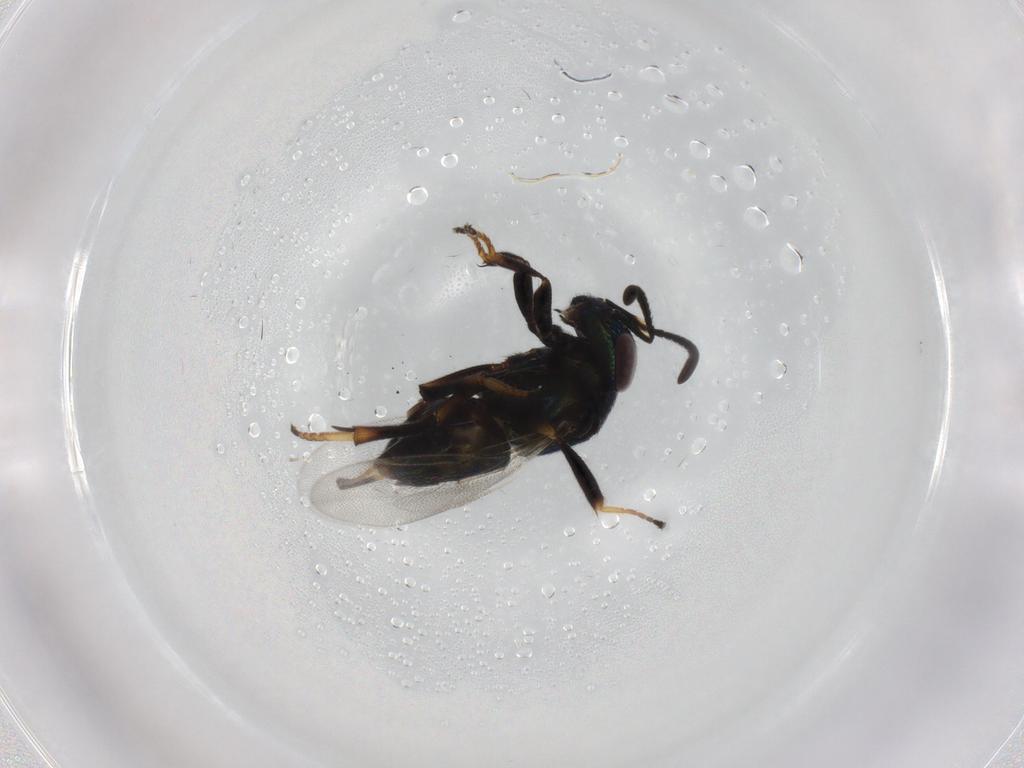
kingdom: Animalia
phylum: Arthropoda
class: Insecta
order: Hymenoptera
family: Encyrtidae
